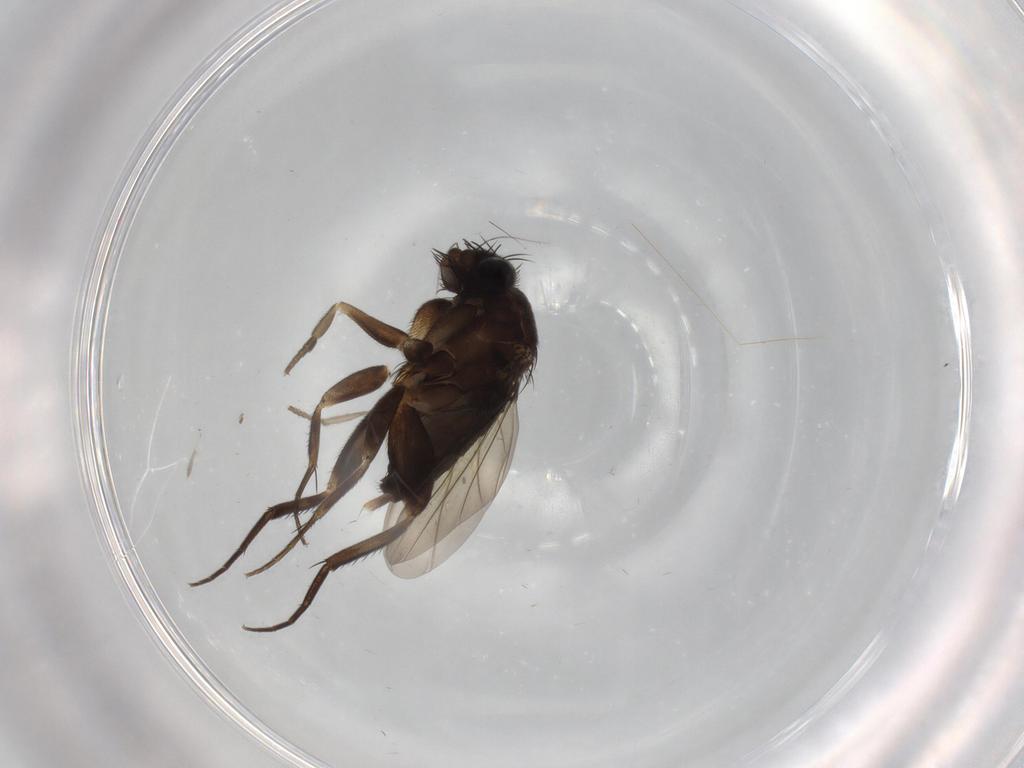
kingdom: Animalia
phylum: Arthropoda
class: Insecta
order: Diptera
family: Phoridae
